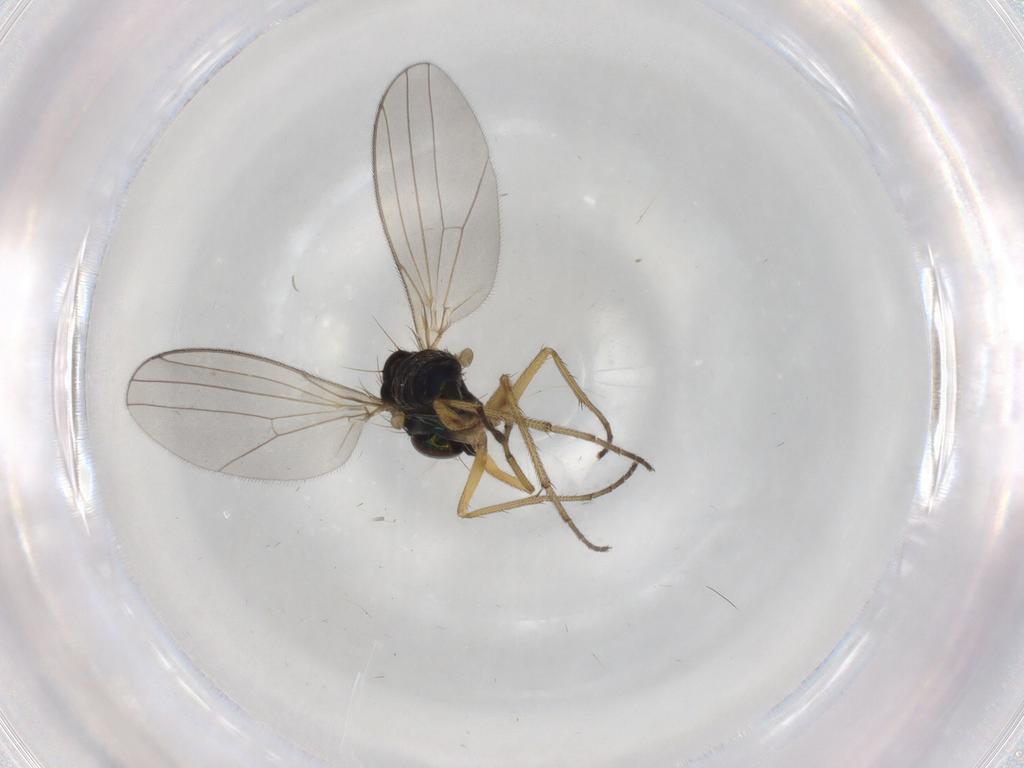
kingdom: Animalia
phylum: Arthropoda
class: Insecta
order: Diptera
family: Dolichopodidae
